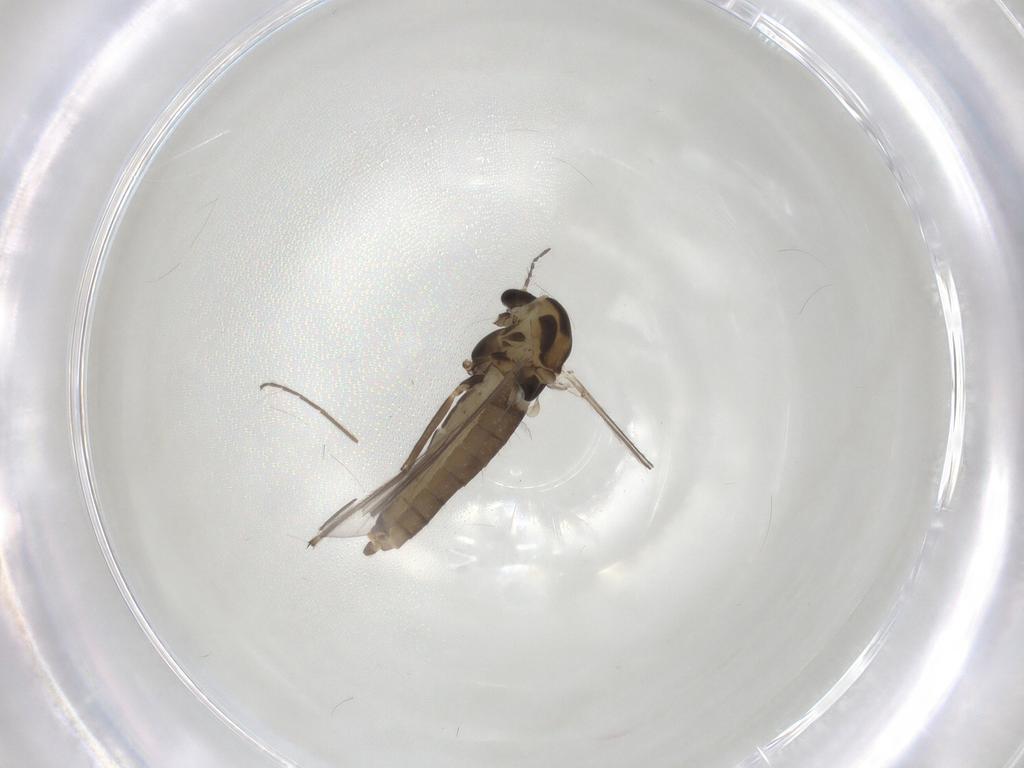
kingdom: Animalia
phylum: Arthropoda
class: Insecta
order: Diptera
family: Chironomidae
